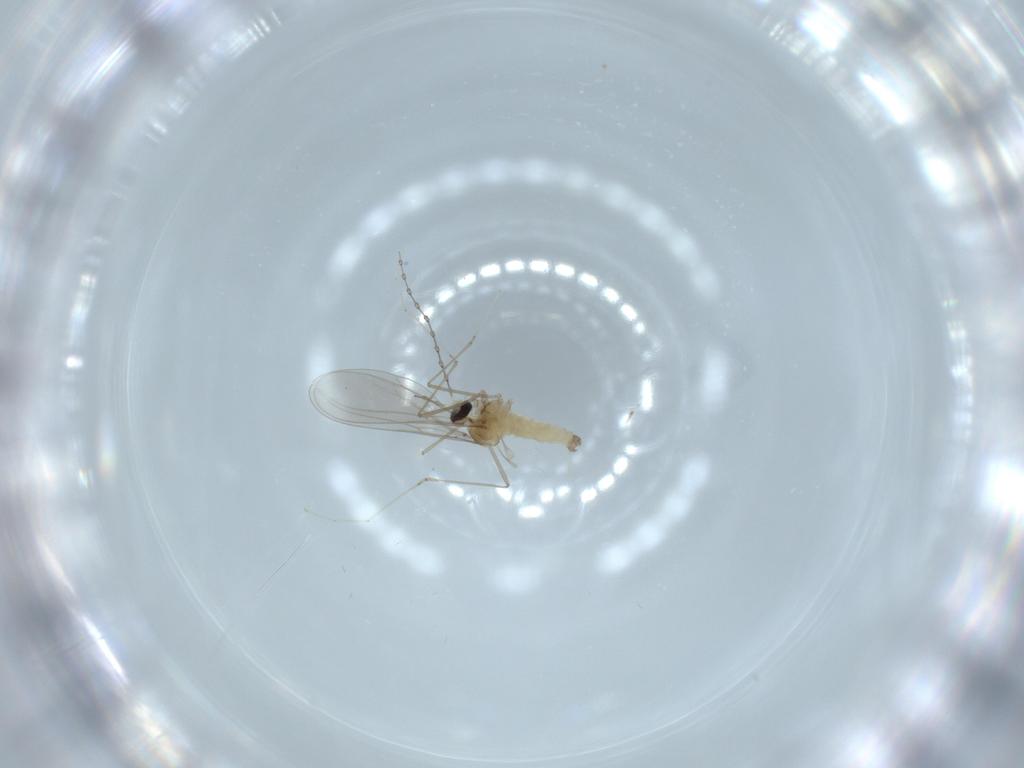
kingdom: Animalia
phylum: Arthropoda
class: Insecta
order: Diptera
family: Cecidomyiidae
